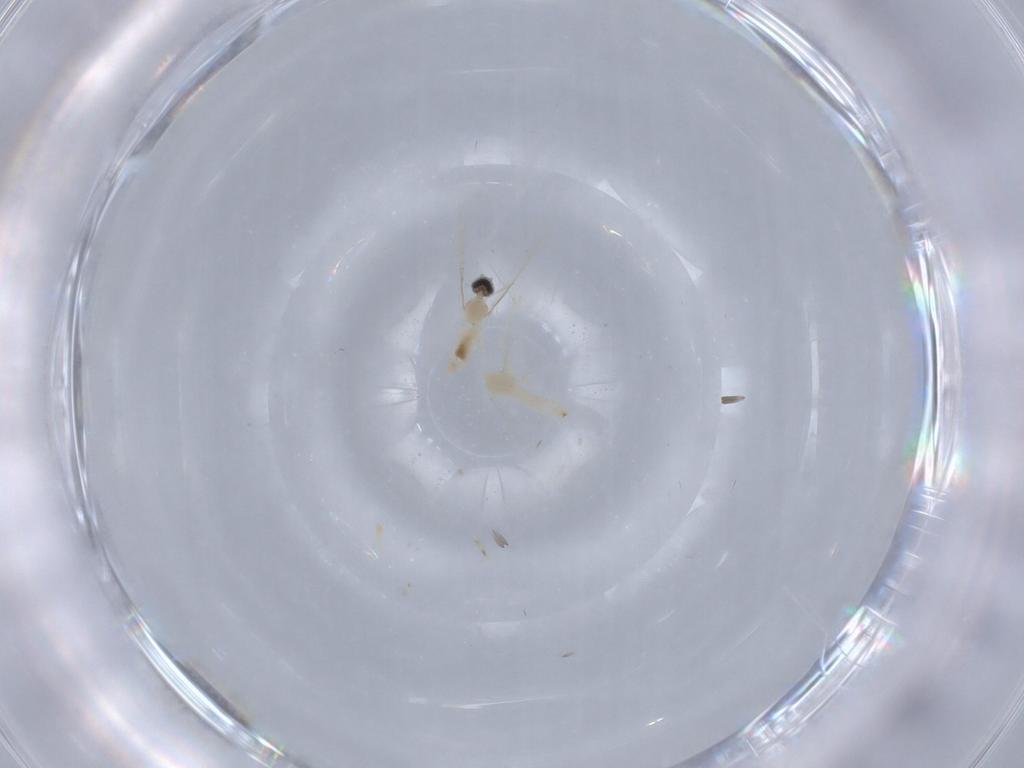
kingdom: Animalia
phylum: Arthropoda
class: Insecta
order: Diptera
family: Cecidomyiidae
